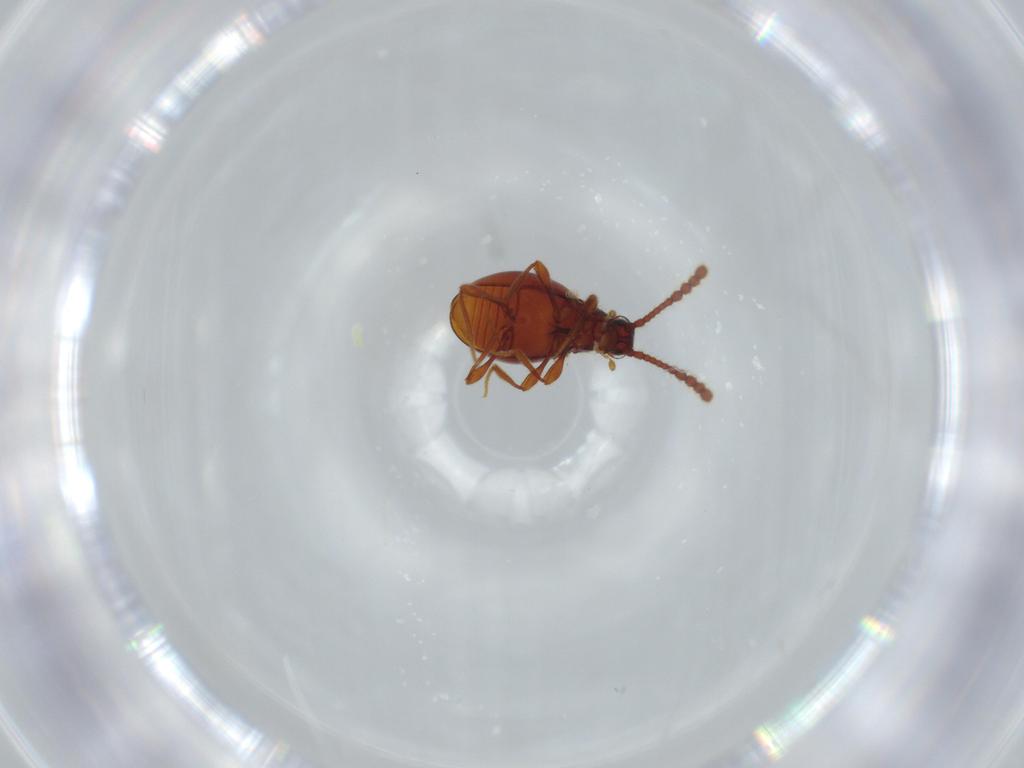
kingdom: Animalia
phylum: Arthropoda
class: Insecta
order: Coleoptera
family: Staphylinidae
